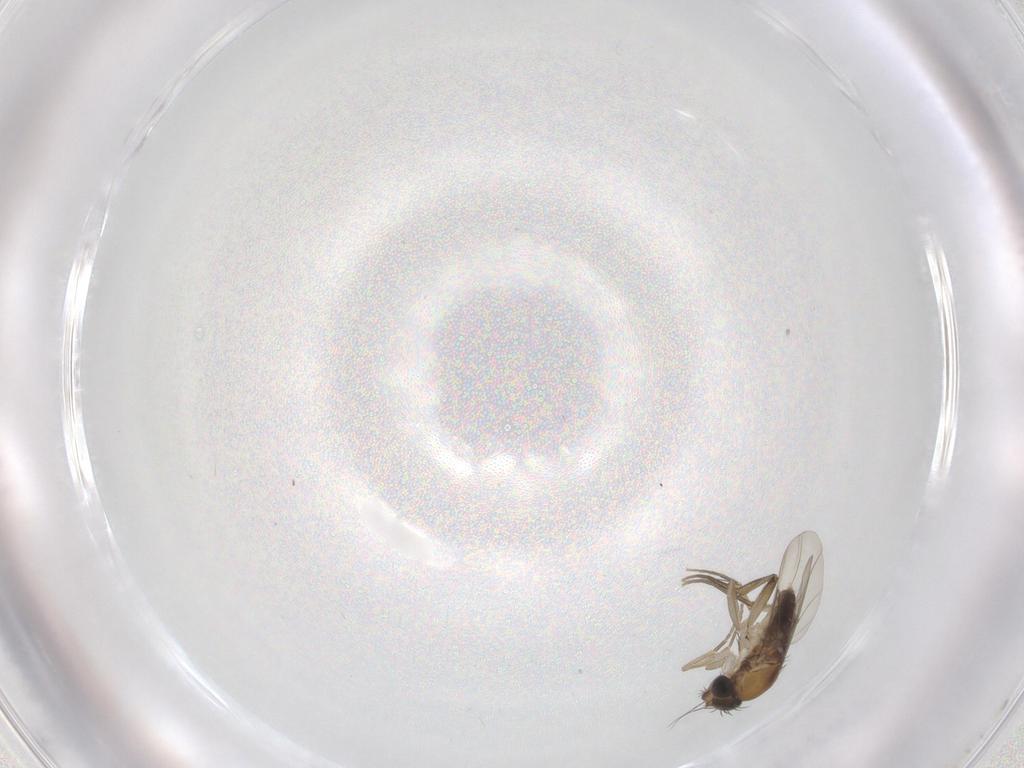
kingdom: Animalia
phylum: Arthropoda
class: Insecta
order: Diptera
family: Phoridae
